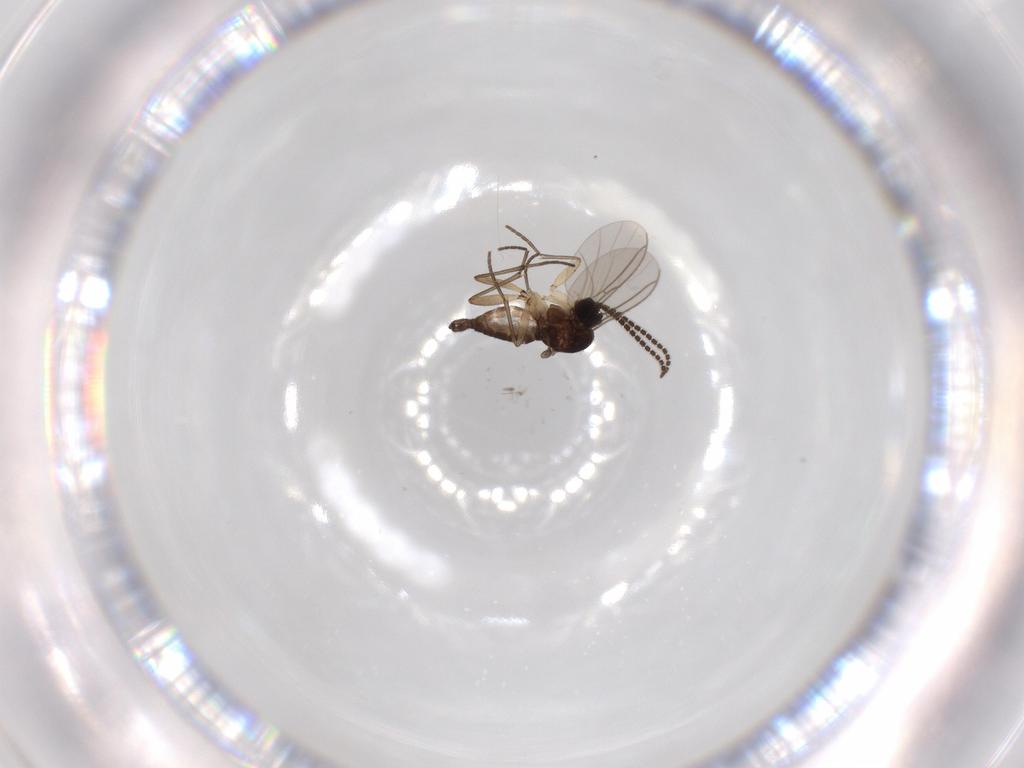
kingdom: Animalia
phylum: Arthropoda
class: Insecta
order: Diptera
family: Sciaridae
